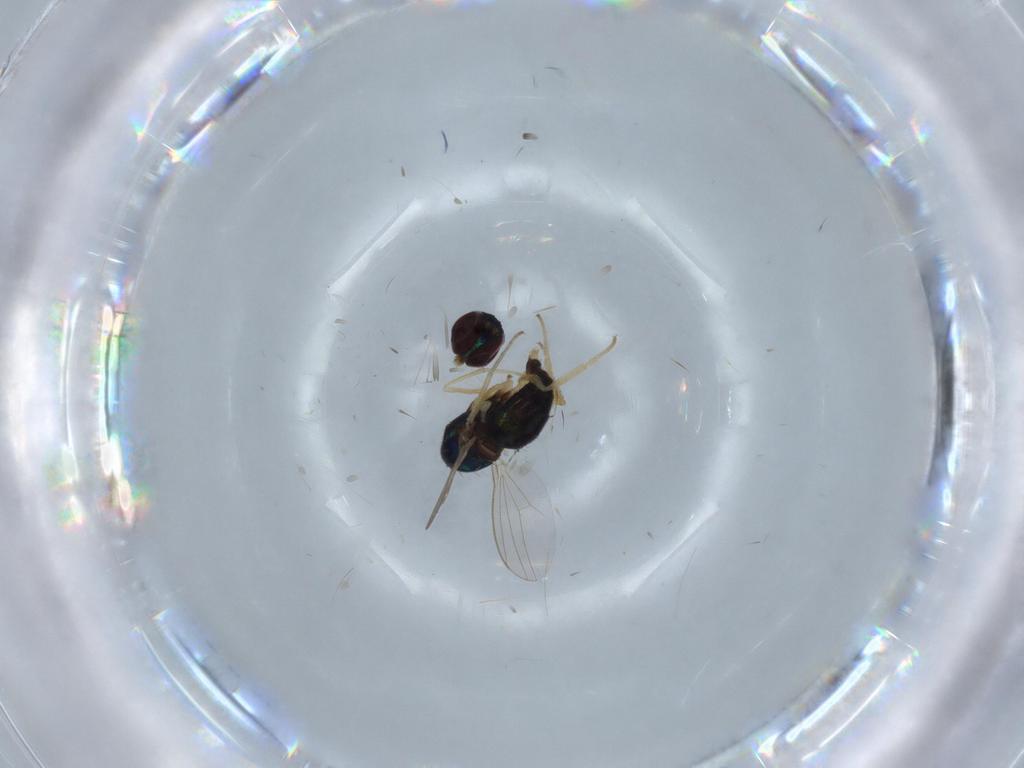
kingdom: Animalia
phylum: Arthropoda
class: Insecta
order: Diptera
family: Dolichopodidae
